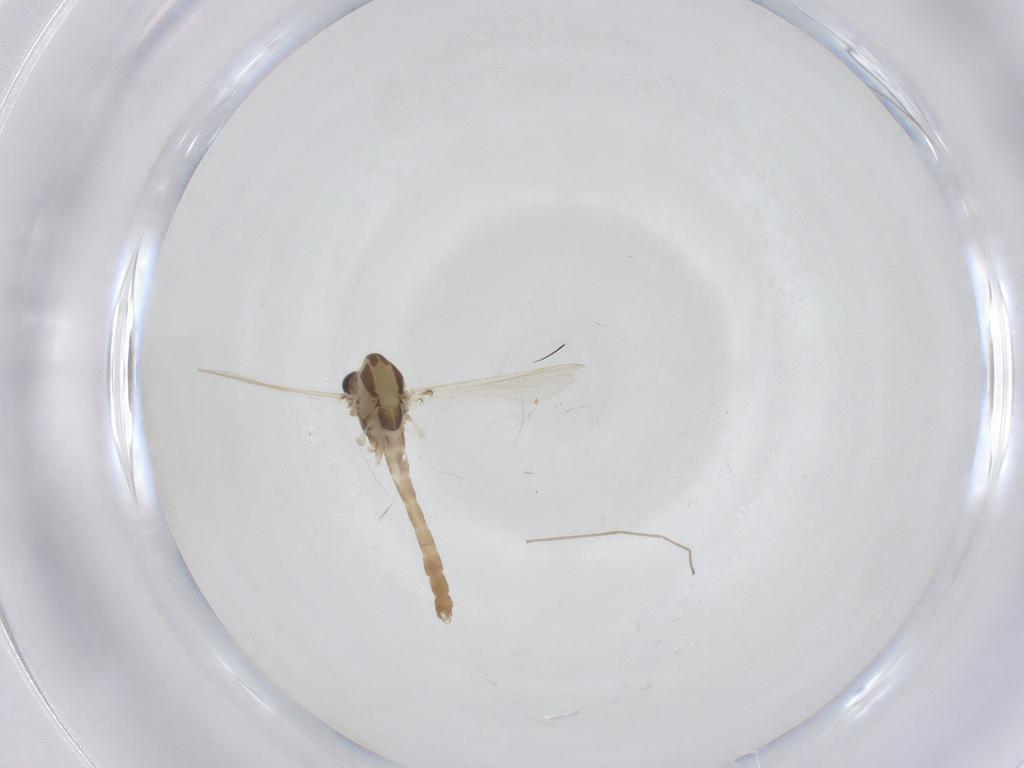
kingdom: Animalia
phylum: Arthropoda
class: Insecta
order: Diptera
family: Chironomidae
